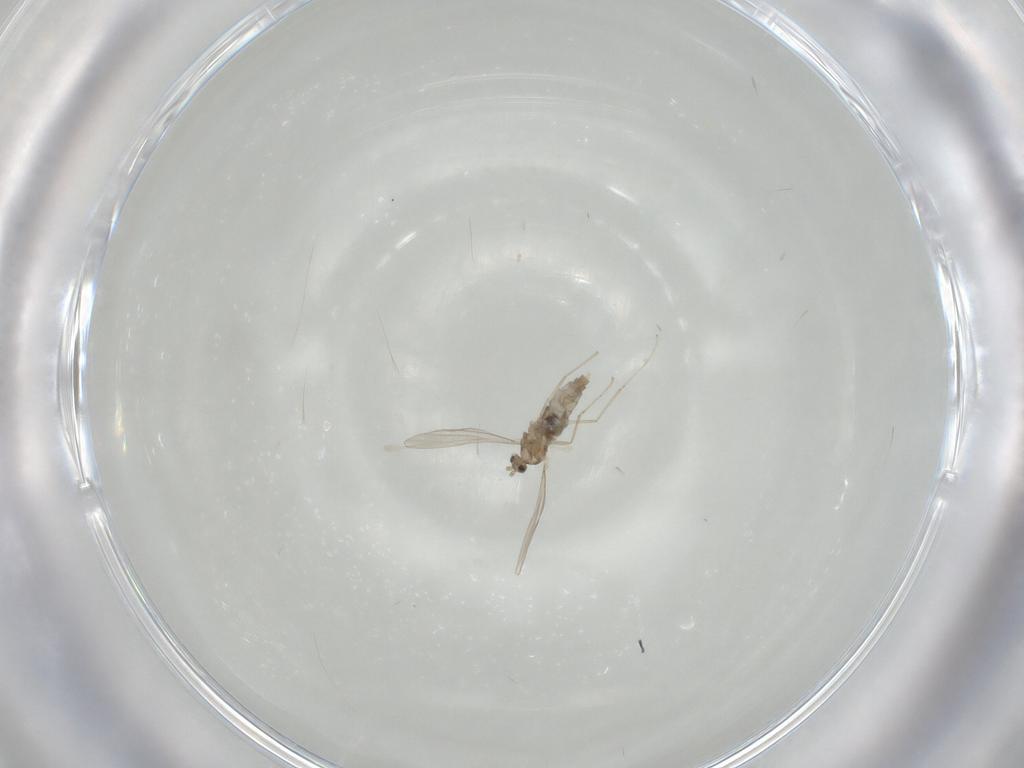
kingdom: Animalia
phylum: Arthropoda
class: Insecta
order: Diptera
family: Cecidomyiidae
